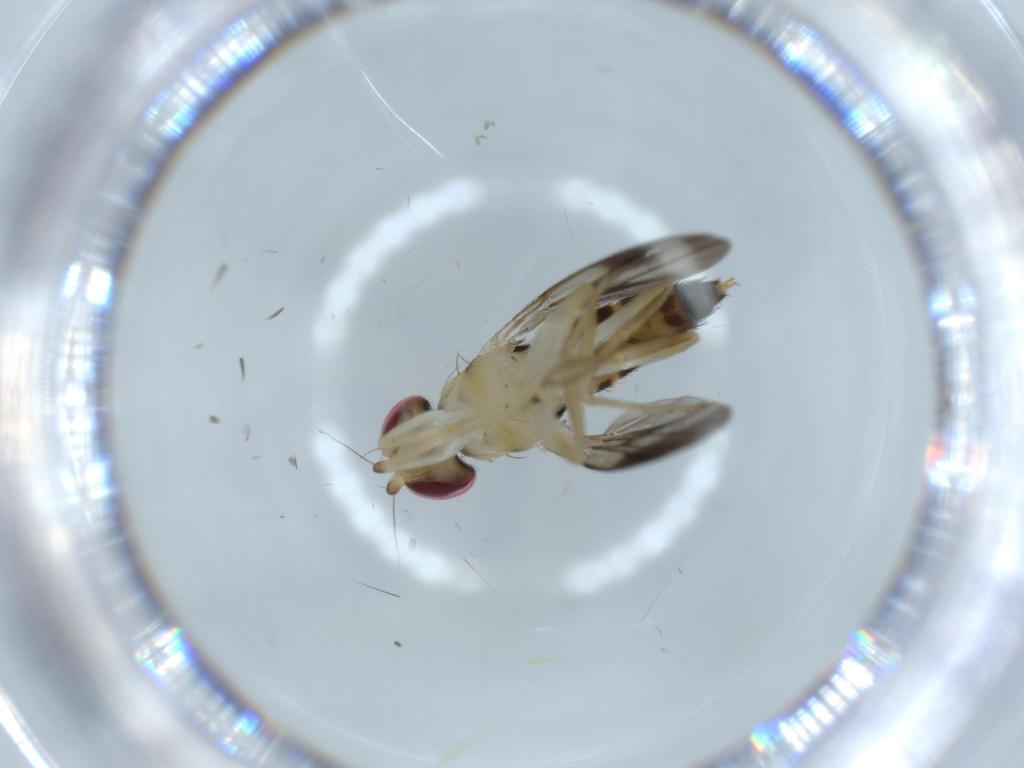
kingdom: Animalia
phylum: Arthropoda
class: Insecta
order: Diptera
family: Clusiidae
